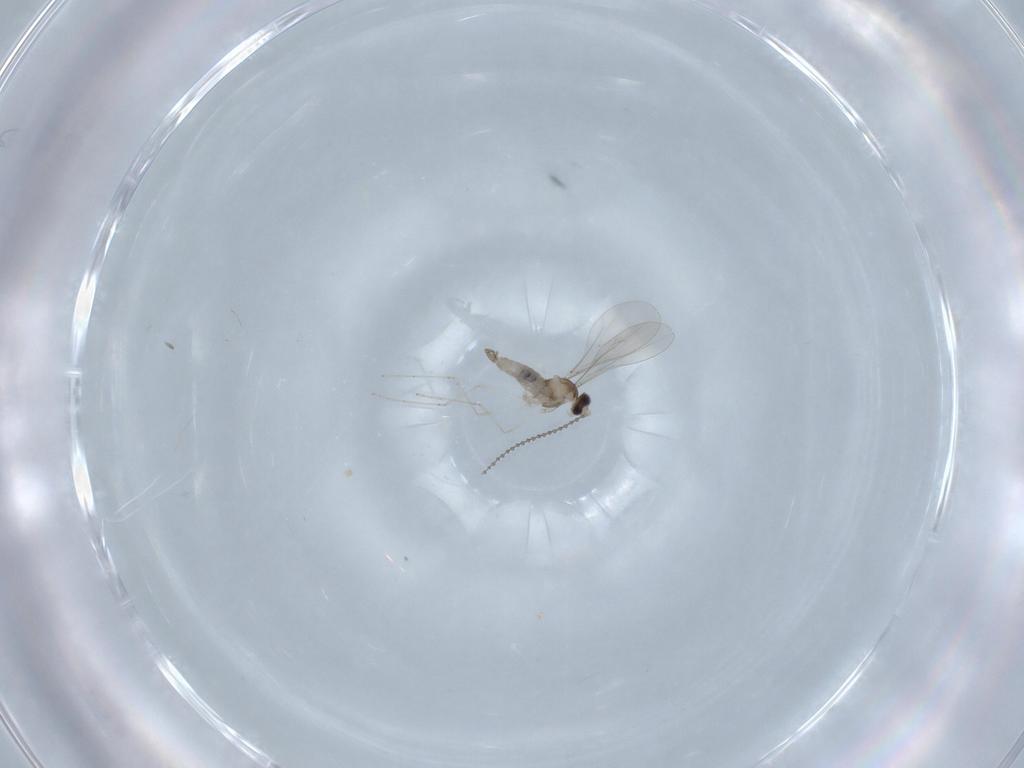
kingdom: Animalia
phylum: Arthropoda
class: Insecta
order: Diptera
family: Cecidomyiidae
